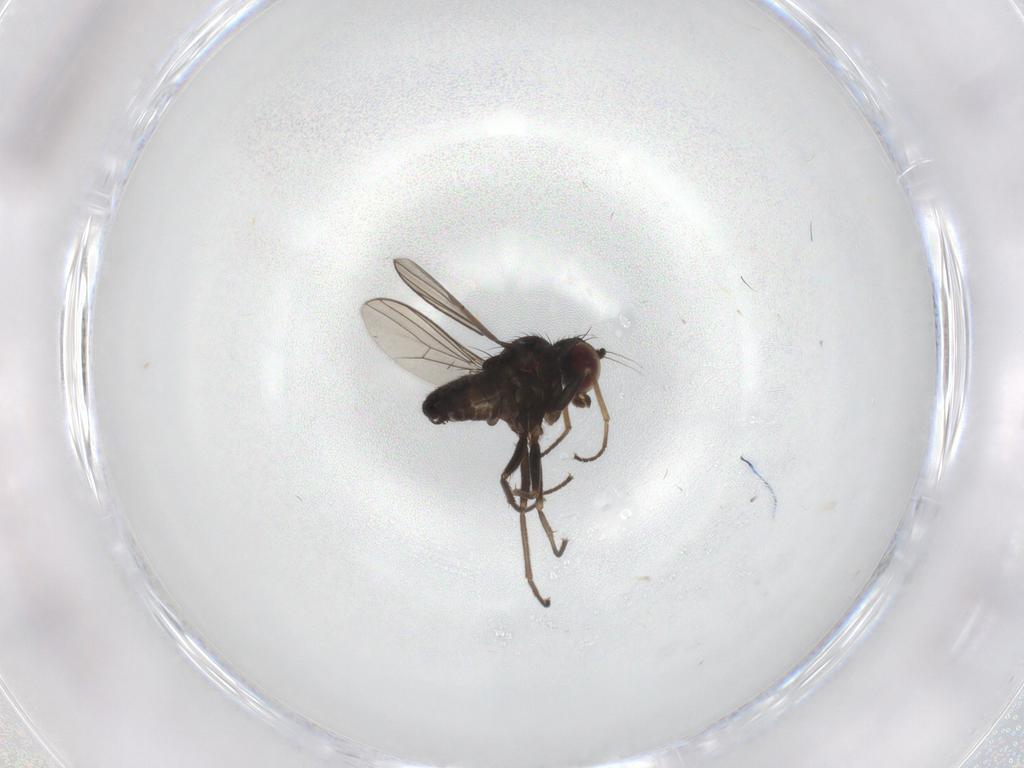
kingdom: Animalia
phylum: Arthropoda
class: Insecta
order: Diptera
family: Dolichopodidae
